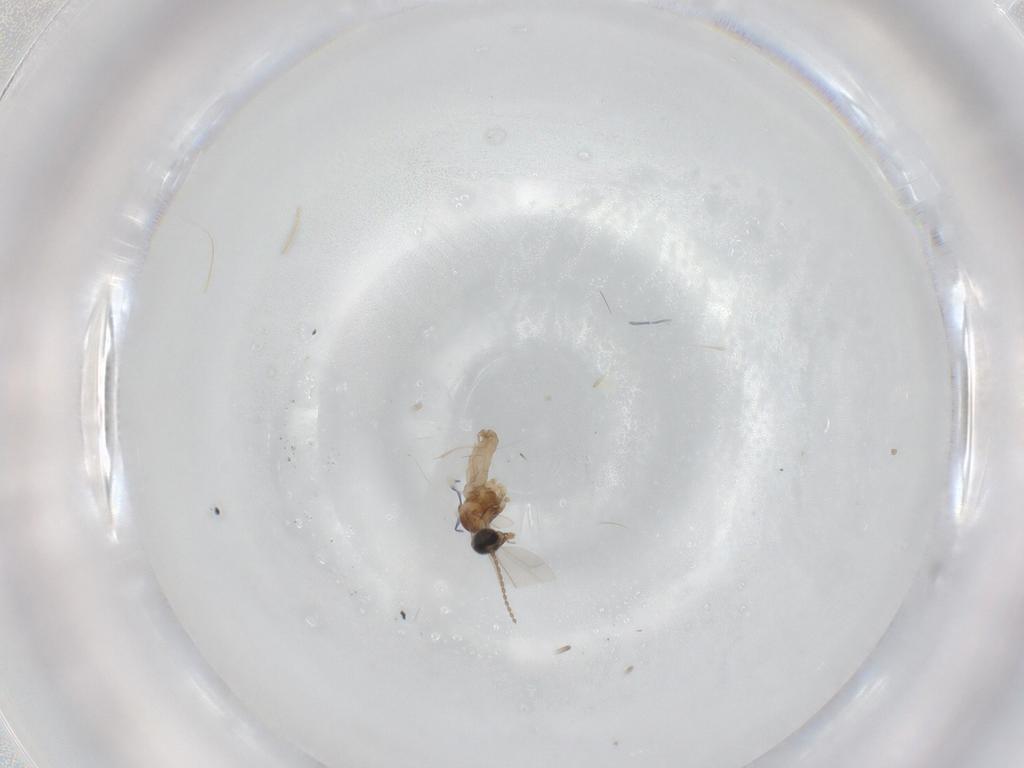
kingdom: Animalia
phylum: Arthropoda
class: Insecta
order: Diptera
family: Cecidomyiidae
